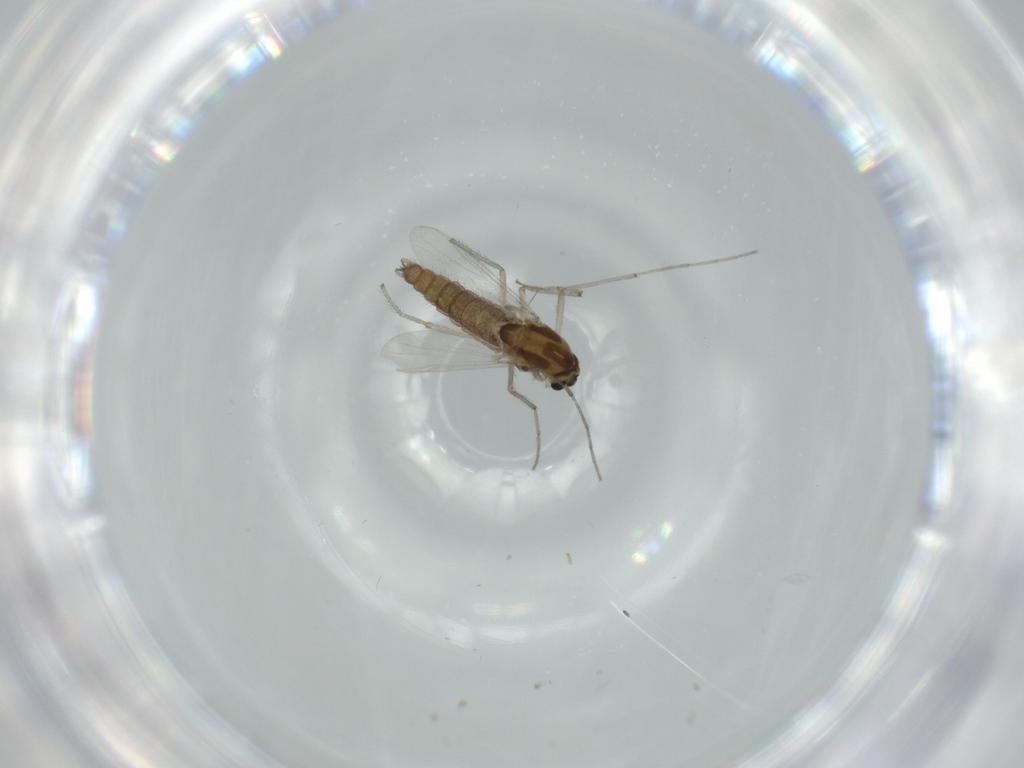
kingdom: Animalia
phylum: Arthropoda
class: Insecta
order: Diptera
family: Chironomidae
